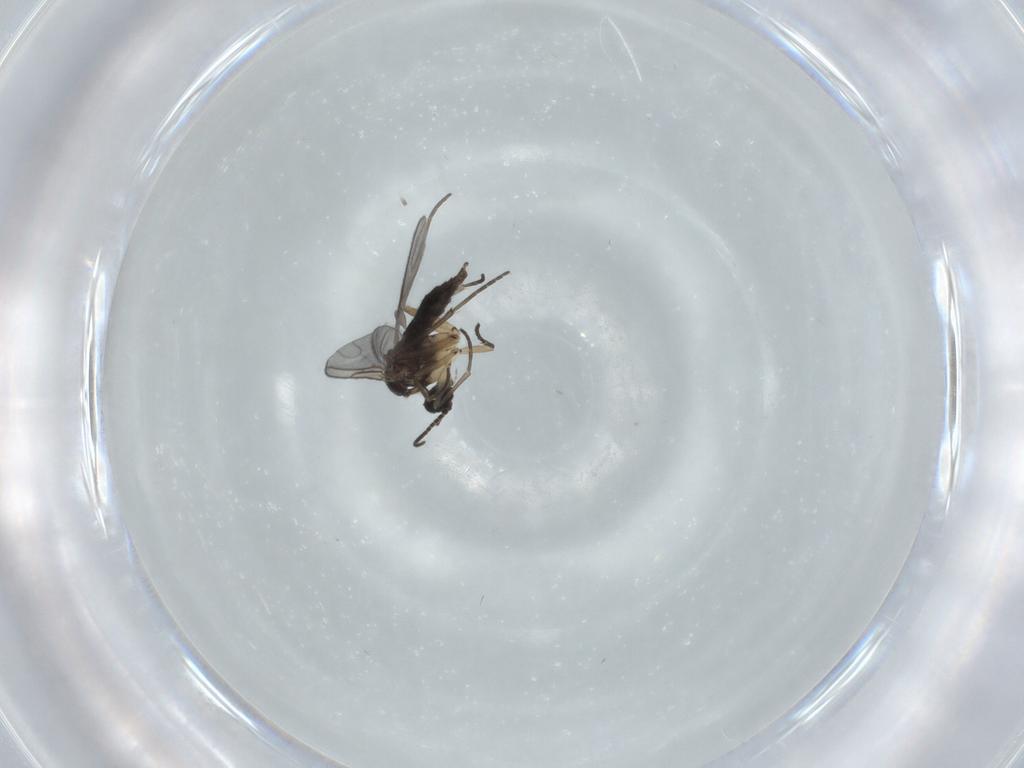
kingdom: Animalia
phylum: Arthropoda
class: Insecta
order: Diptera
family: Sciaridae
